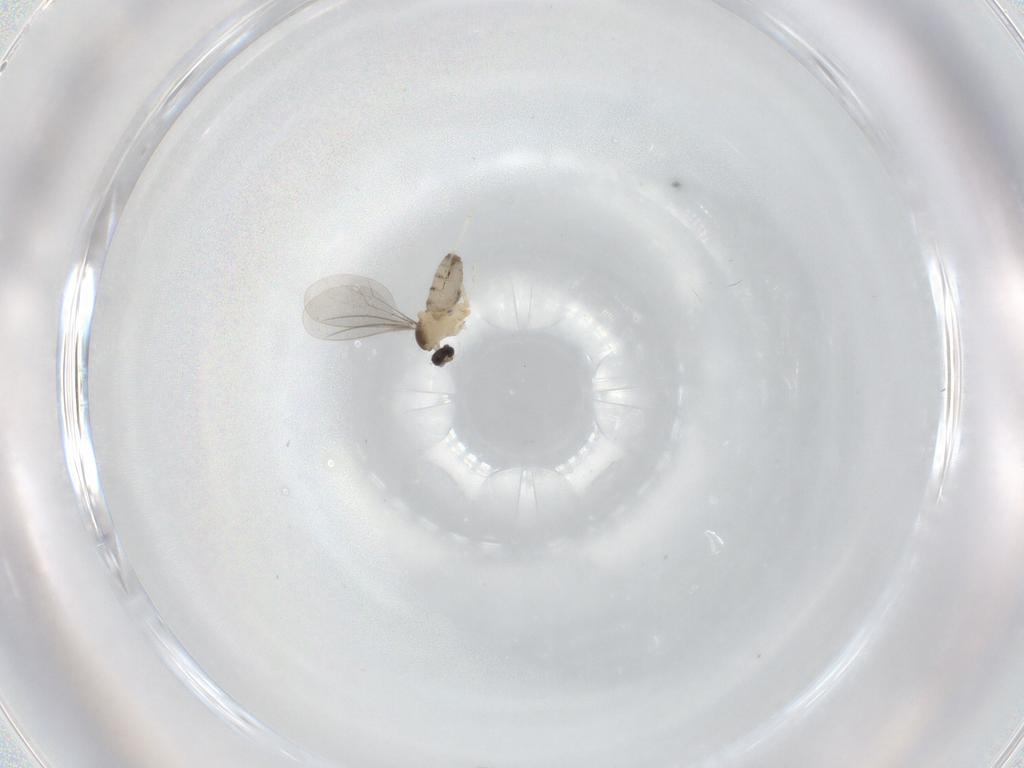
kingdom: Animalia
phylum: Arthropoda
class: Insecta
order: Diptera
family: Cecidomyiidae
